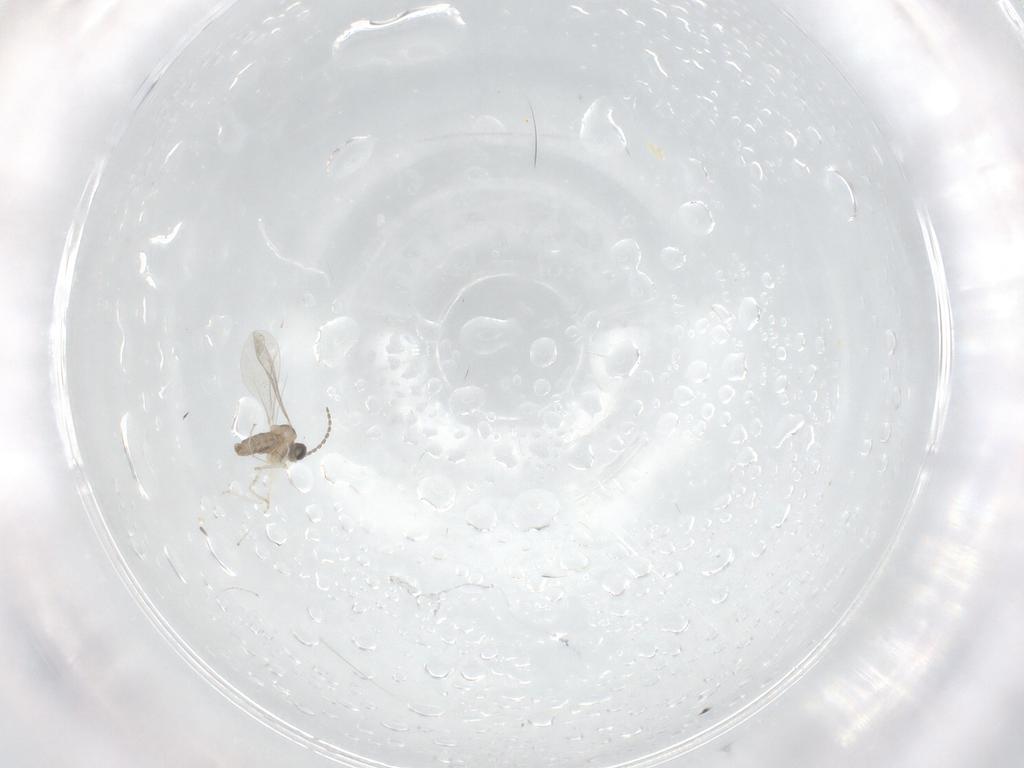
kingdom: Animalia
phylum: Arthropoda
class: Insecta
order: Diptera
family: Cecidomyiidae
